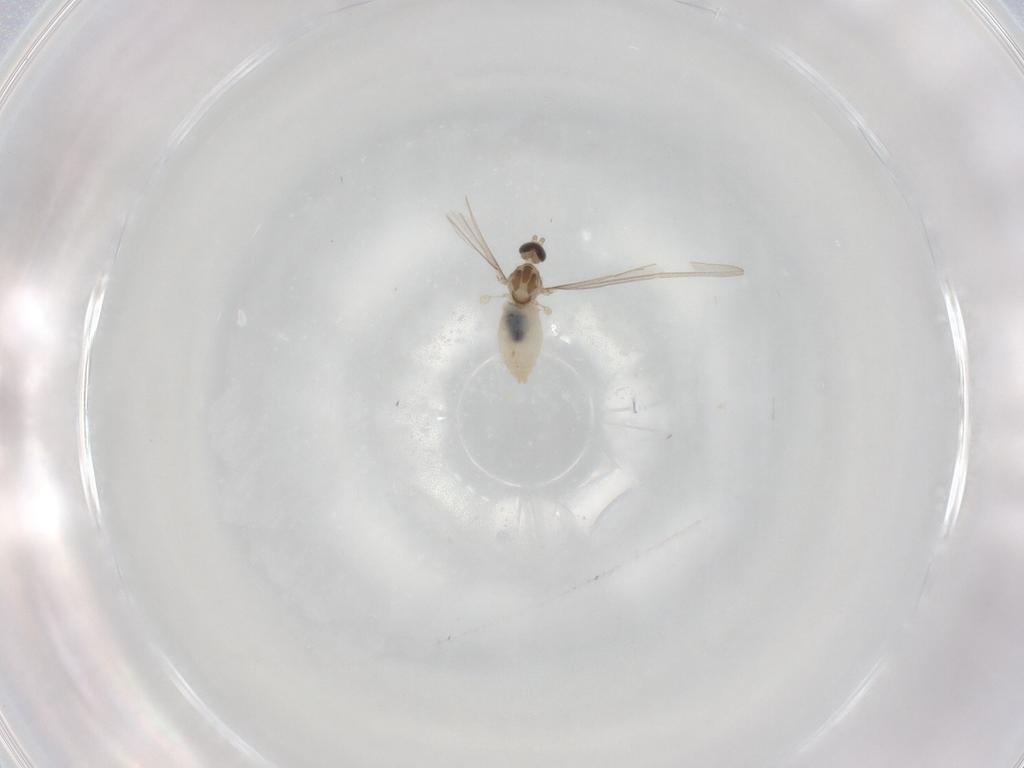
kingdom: Animalia
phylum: Arthropoda
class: Insecta
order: Diptera
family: Cecidomyiidae
